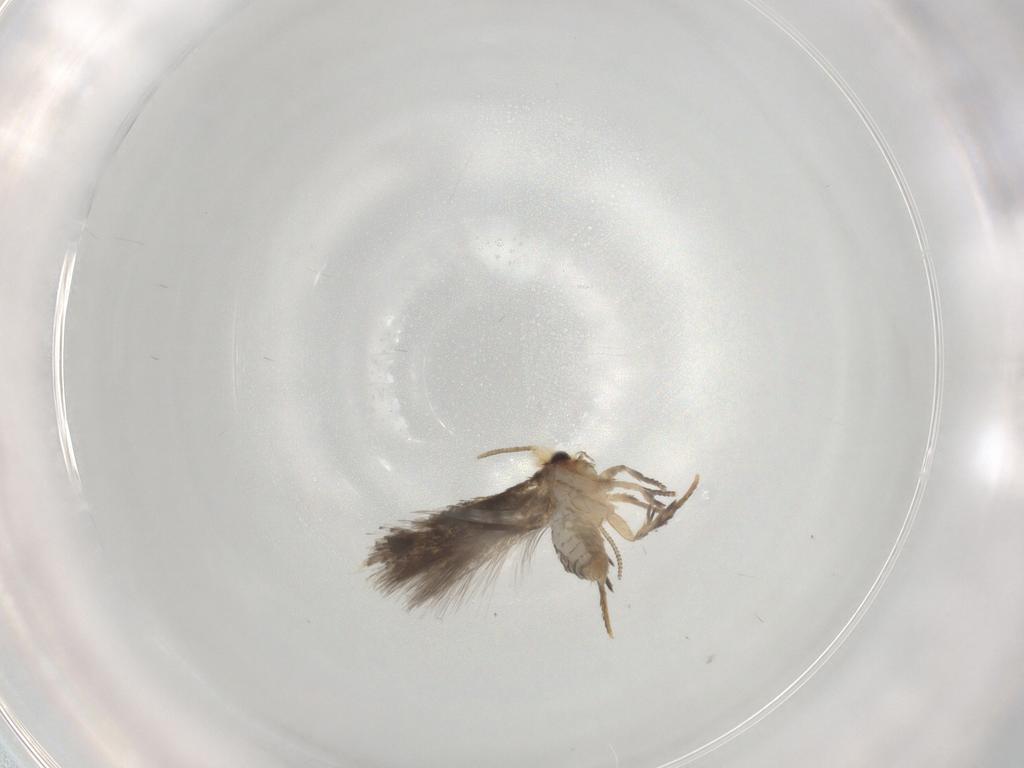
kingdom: Animalia
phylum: Arthropoda
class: Insecta
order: Lepidoptera
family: Nepticulidae
